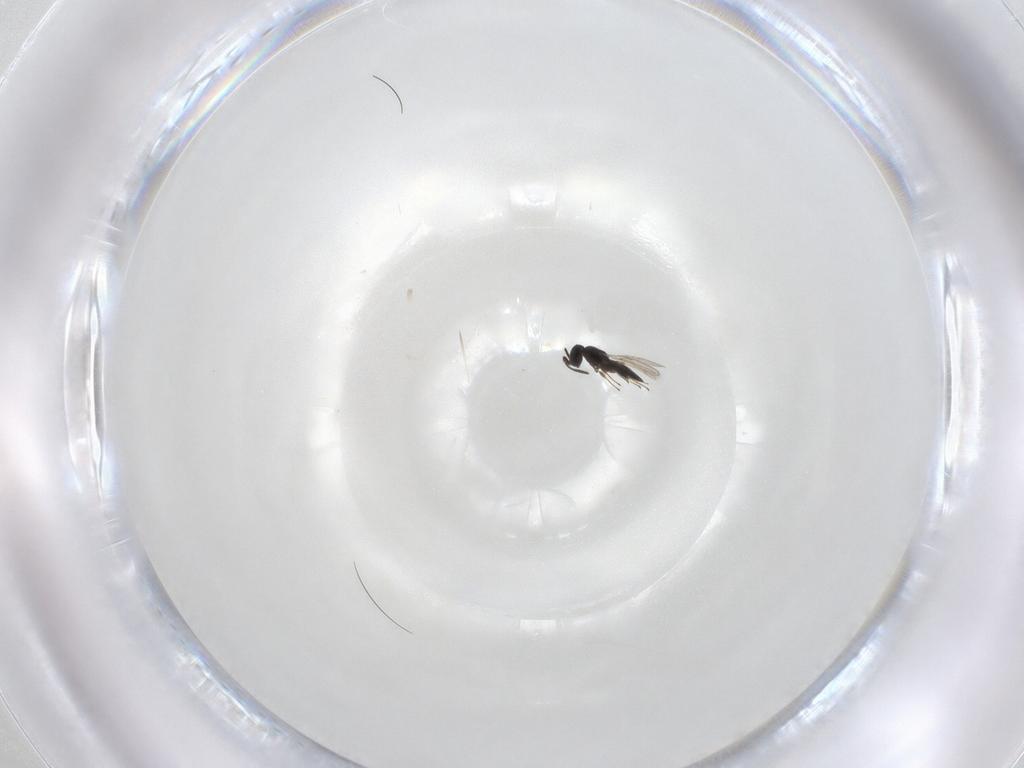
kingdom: Animalia
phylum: Arthropoda
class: Insecta
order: Hymenoptera
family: Scelionidae
